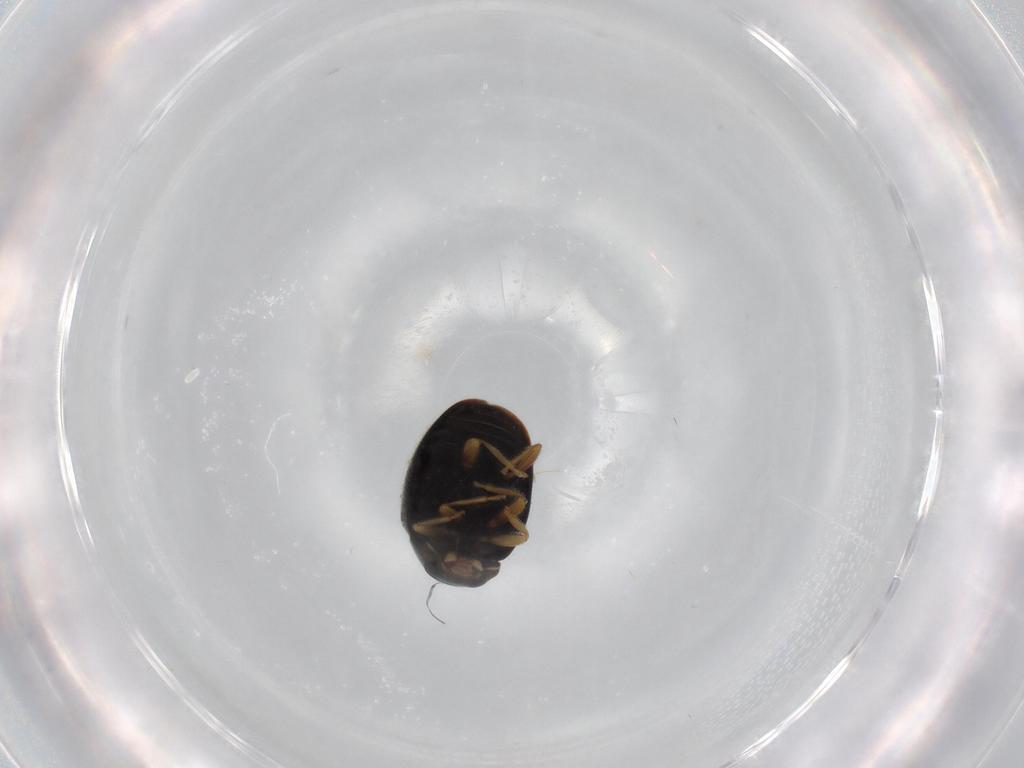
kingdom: Animalia
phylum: Arthropoda
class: Insecta
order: Coleoptera
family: Coccinellidae
